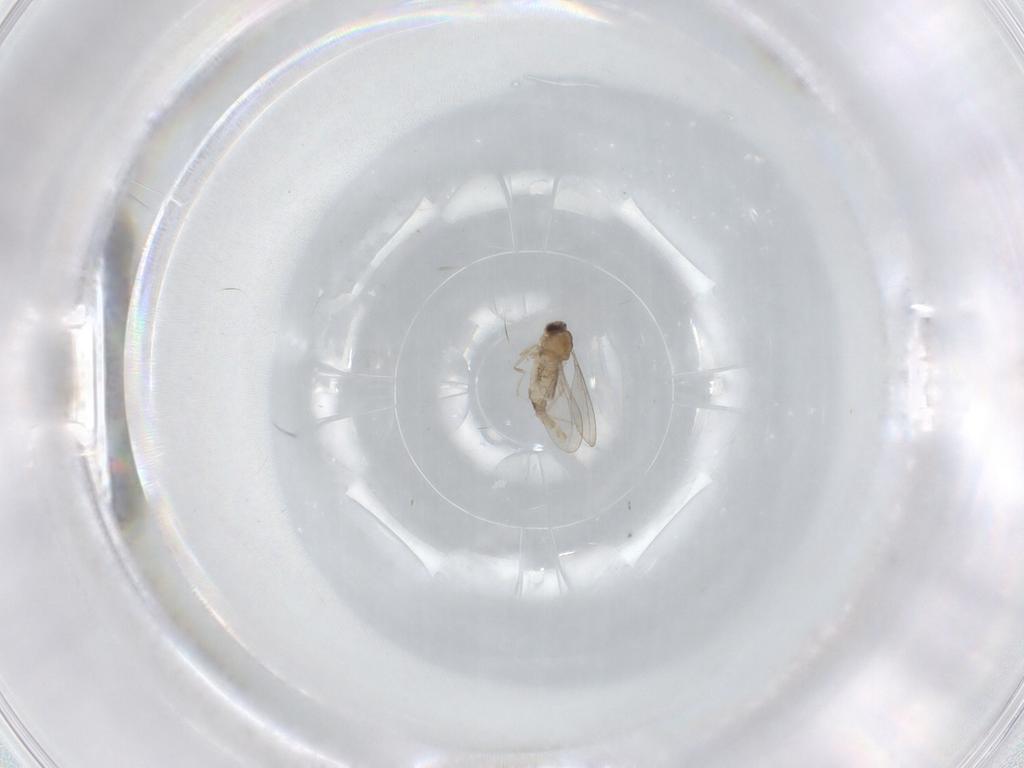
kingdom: Animalia
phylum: Arthropoda
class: Insecta
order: Diptera
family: Cecidomyiidae
